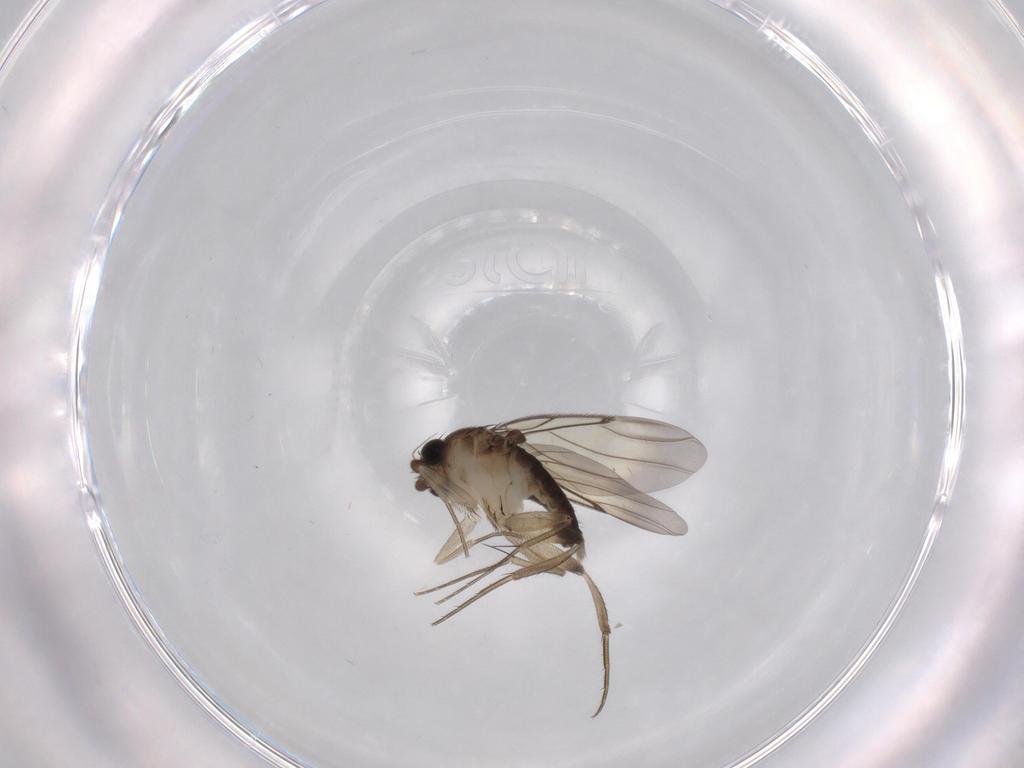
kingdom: Animalia
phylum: Arthropoda
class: Insecta
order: Diptera
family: Phoridae
